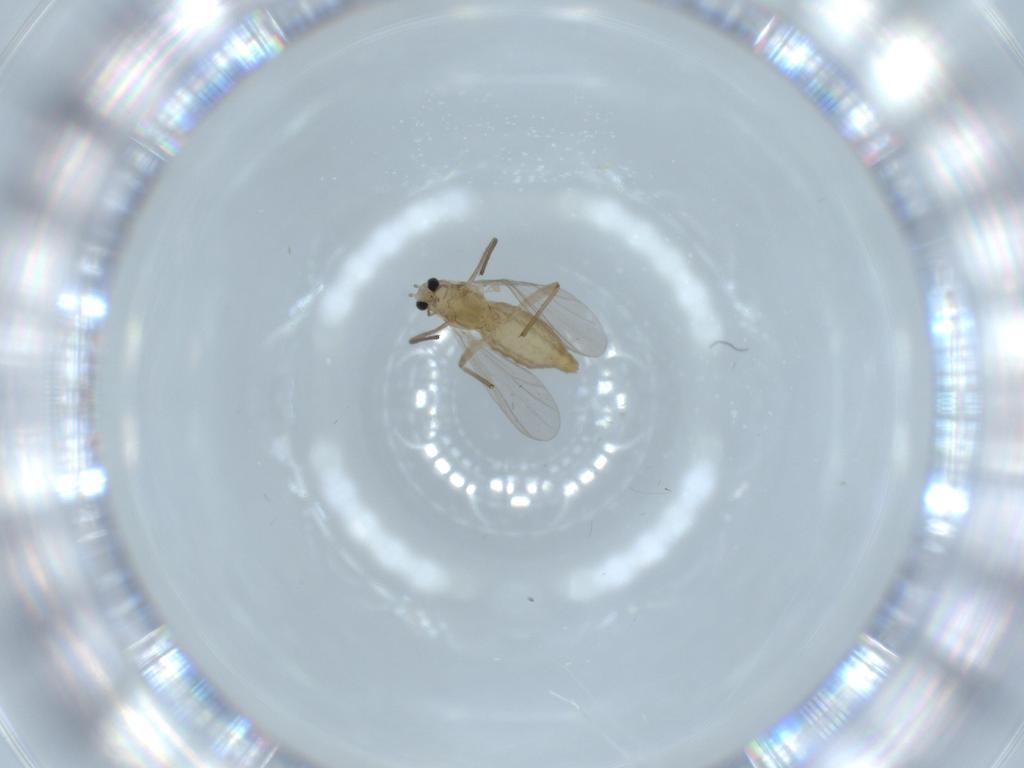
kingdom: Animalia
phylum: Arthropoda
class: Insecta
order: Diptera
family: Chironomidae
